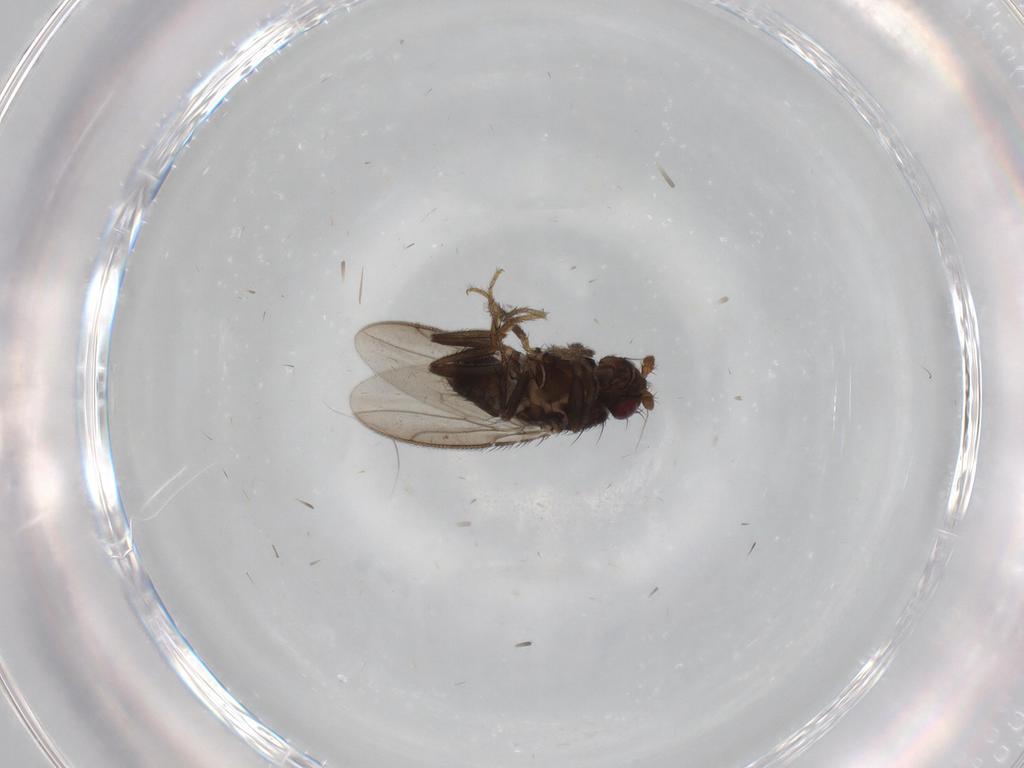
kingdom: Animalia
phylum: Arthropoda
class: Insecta
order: Diptera
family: Sphaeroceridae
